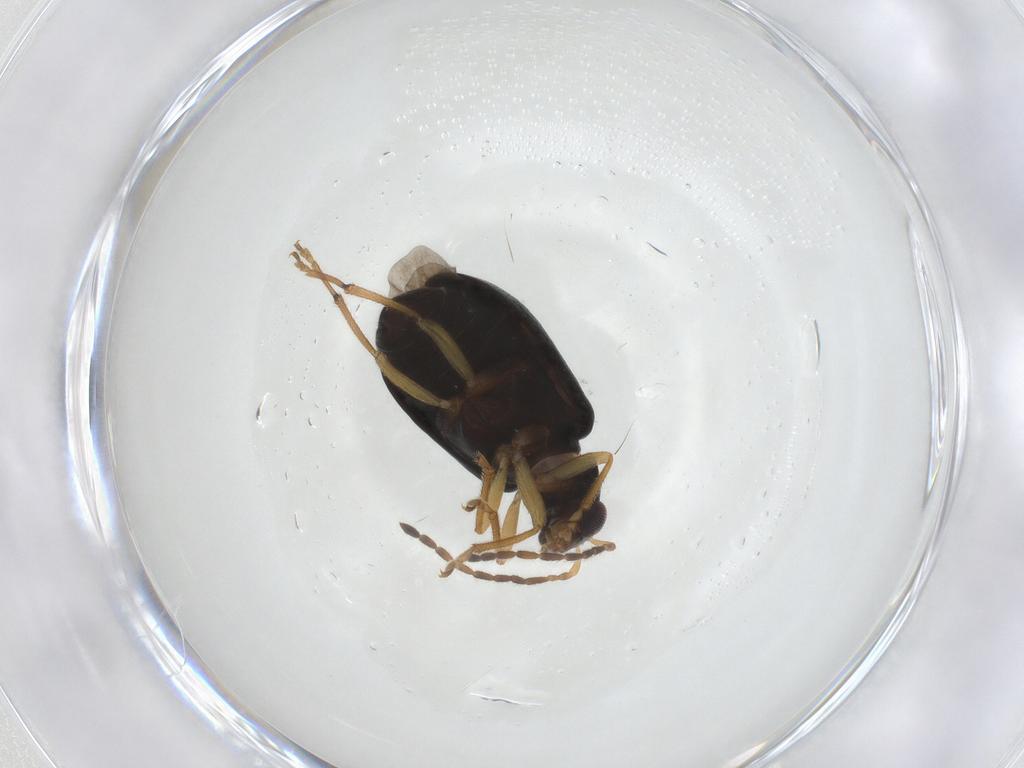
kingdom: Animalia
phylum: Arthropoda
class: Insecta
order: Coleoptera
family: Chrysomelidae
